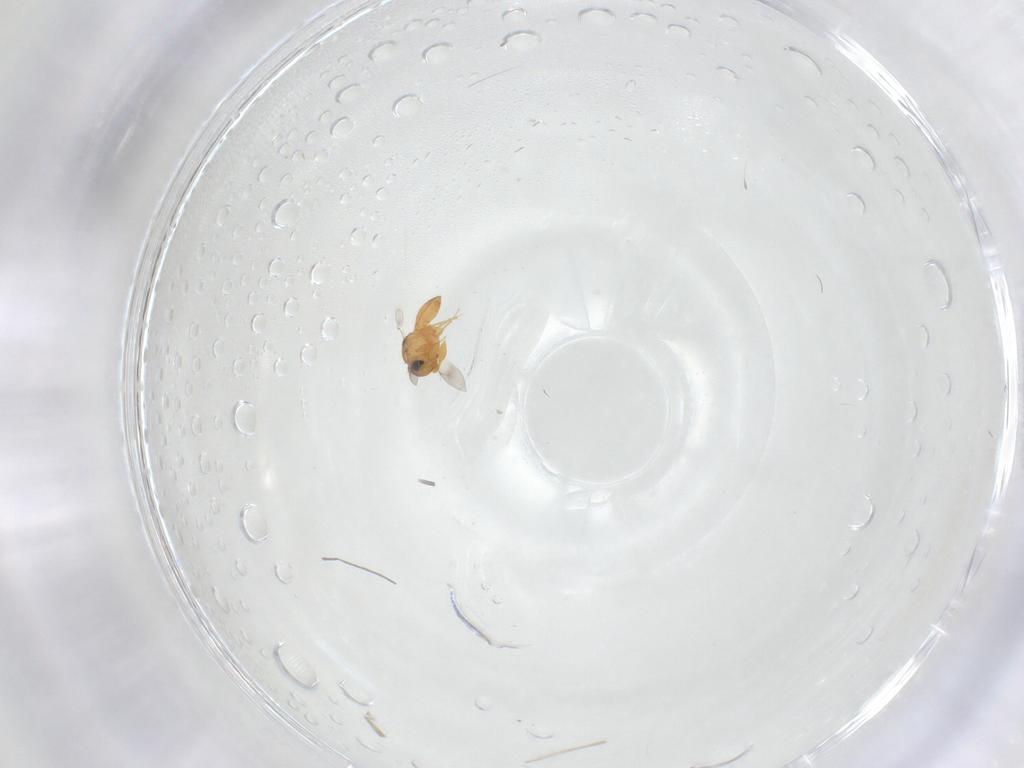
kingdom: Animalia
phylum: Arthropoda
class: Insecta
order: Hymenoptera
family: Scelionidae
